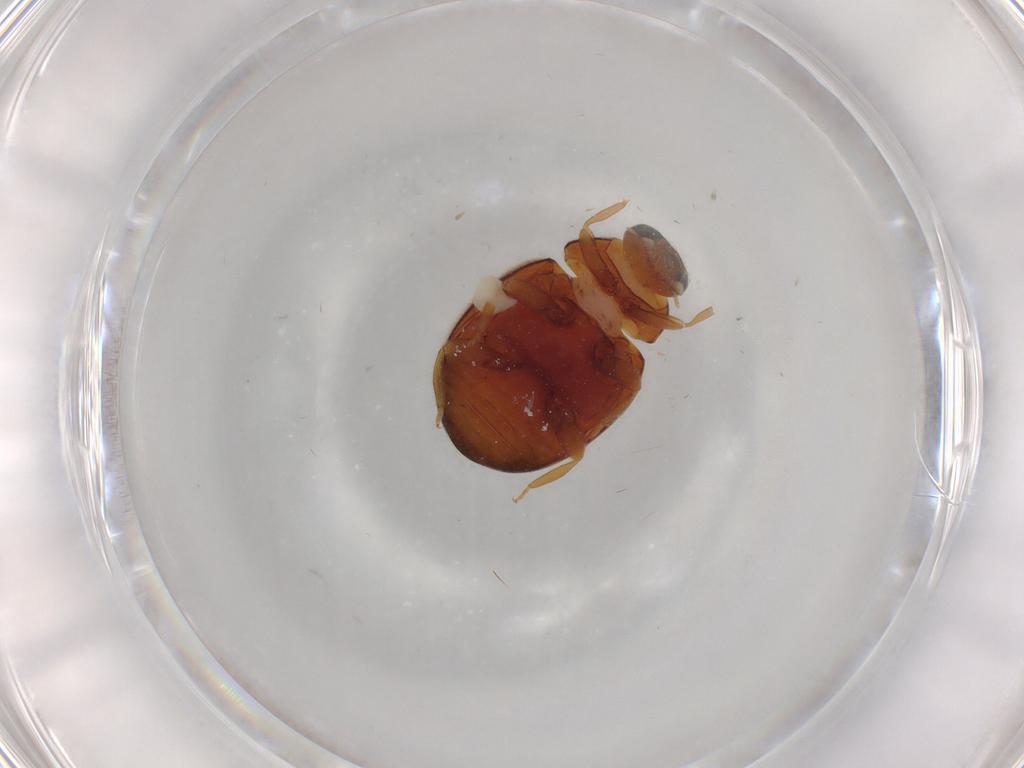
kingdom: Animalia
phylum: Arthropoda
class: Insecta
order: Coleoptera
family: Coccinellidae
